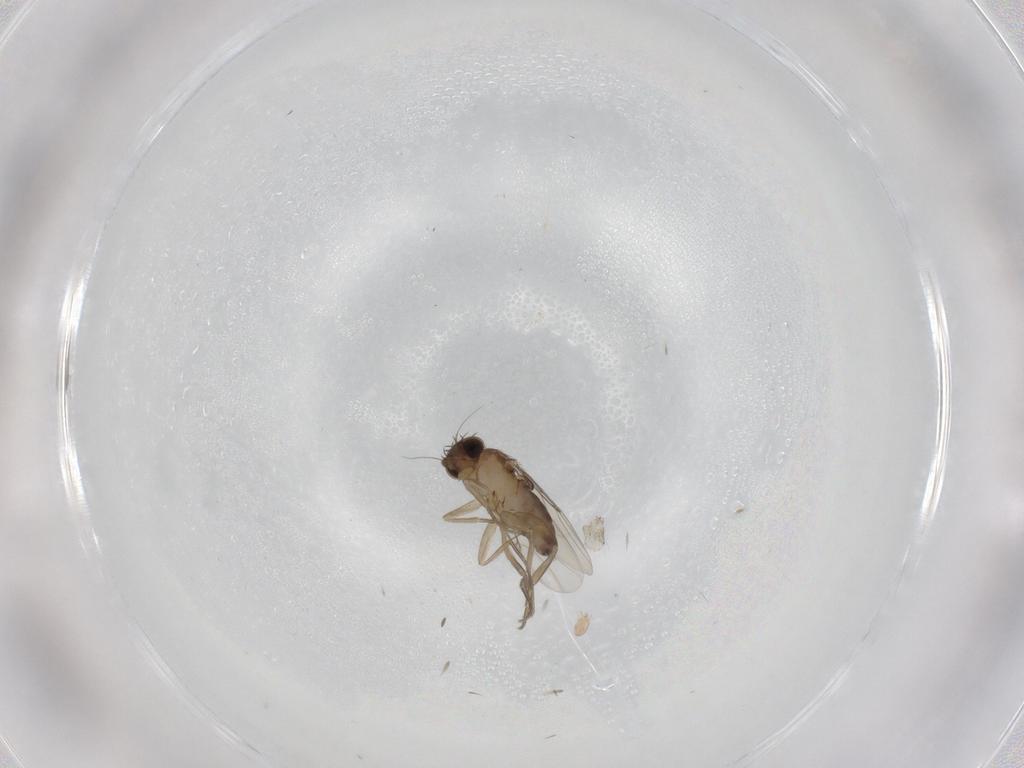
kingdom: Animalia
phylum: Arthropoda
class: Insecta
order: Diptera
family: Phoridae
